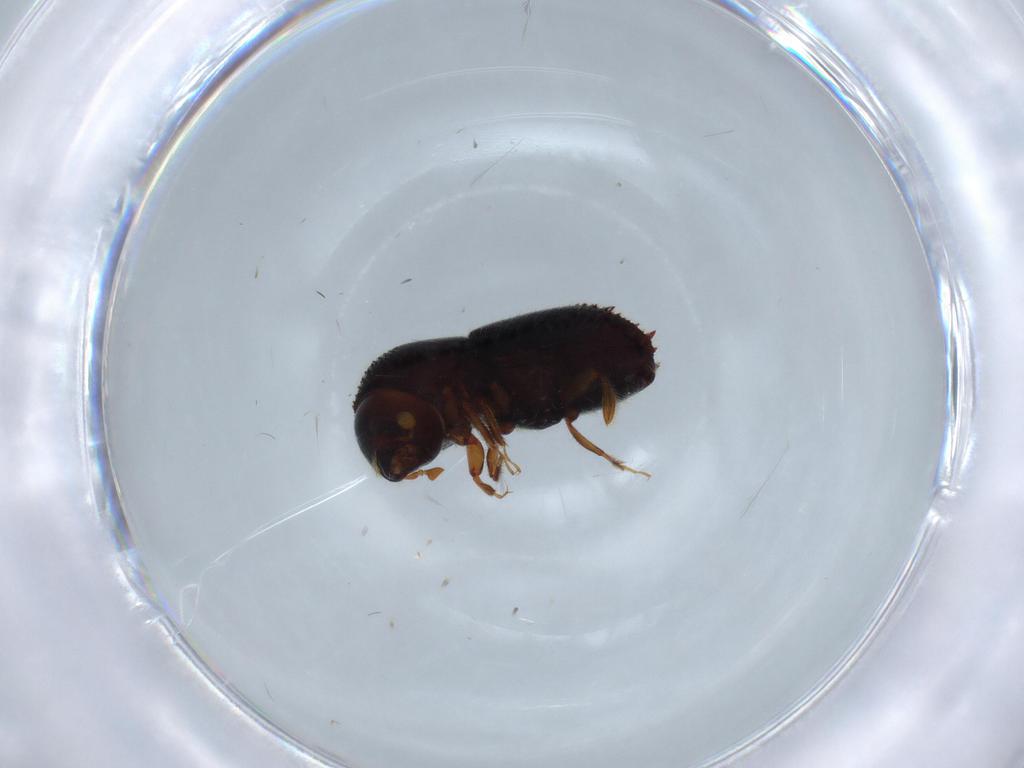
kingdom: Animalia
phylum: Arthropoda
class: Insecta
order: Coleoptera
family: Curculionidae
